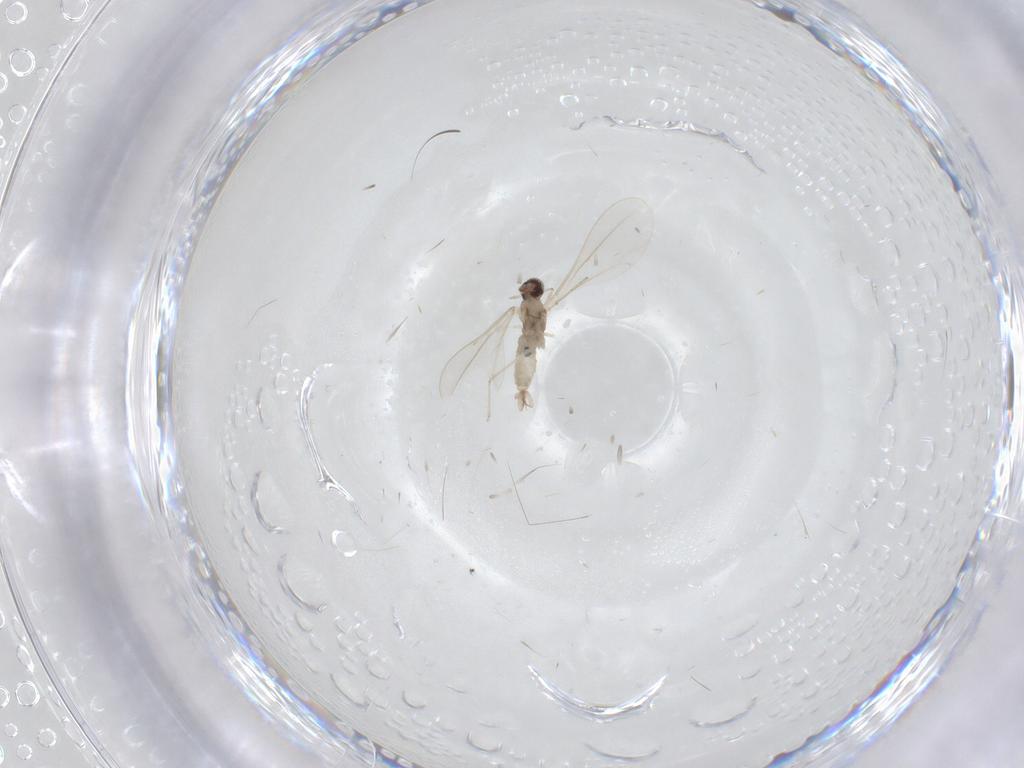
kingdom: Animalia
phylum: Arthropoda
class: Insecta
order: Diptera
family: Cecidomyiidae
